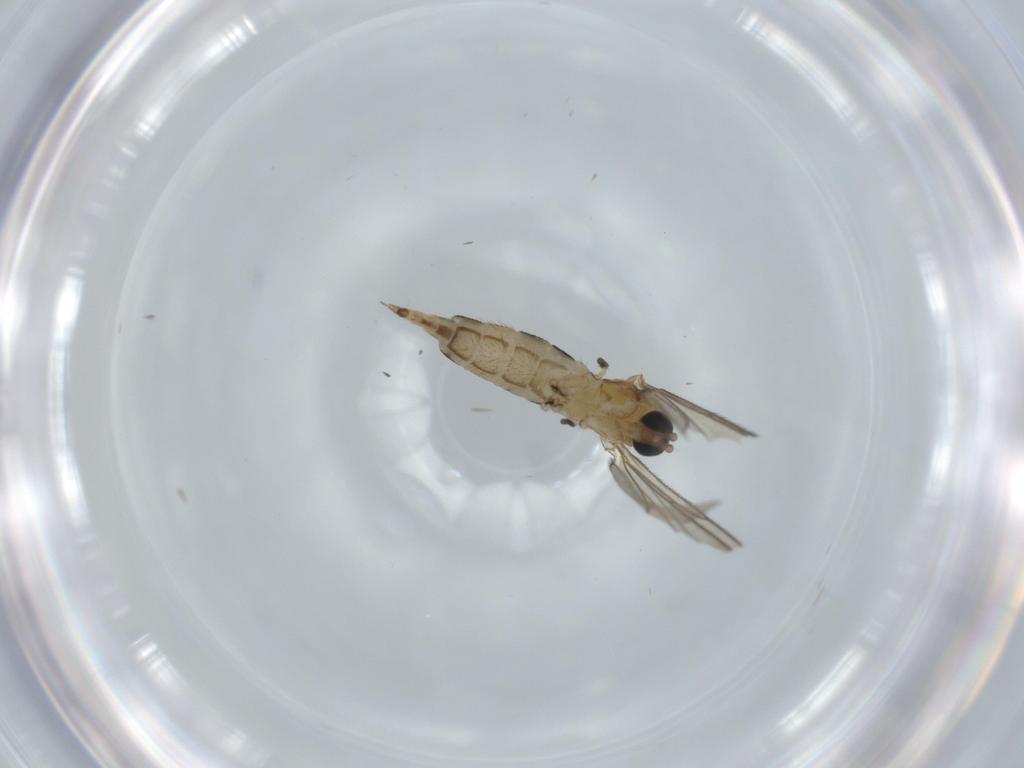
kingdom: Animalia
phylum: Arthropoda
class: Insecta
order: Diptera
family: Sciaridae
